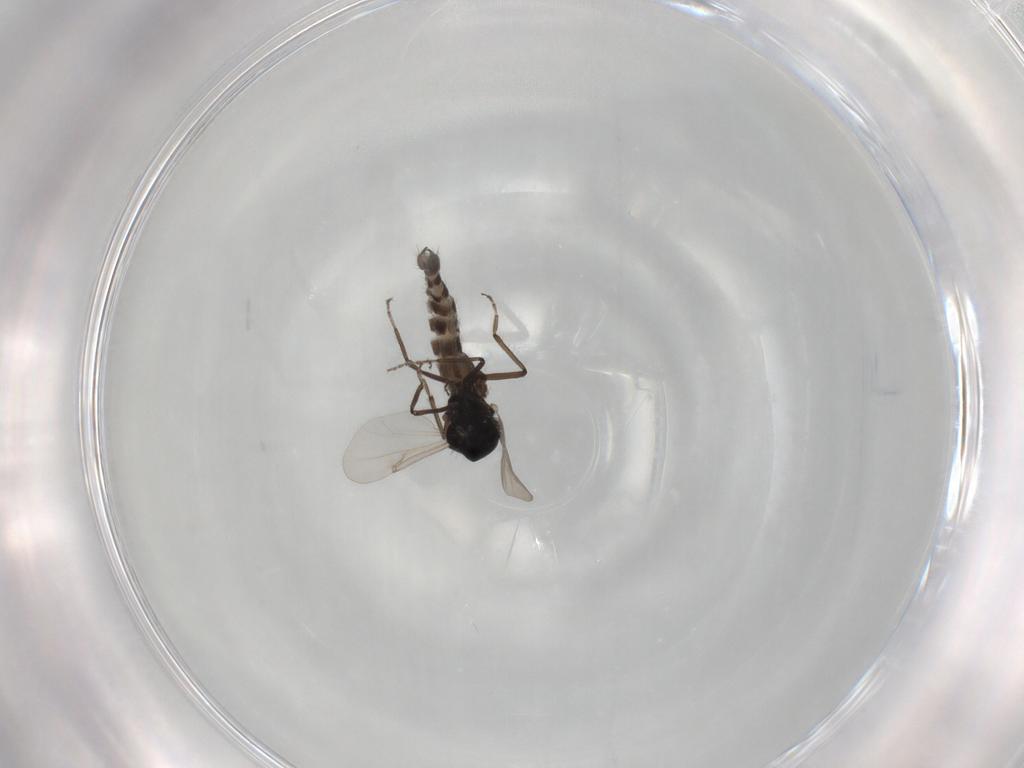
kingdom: Animalia
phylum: Arthropoda
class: Insecta
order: Diptera
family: Ceratopogonidae
